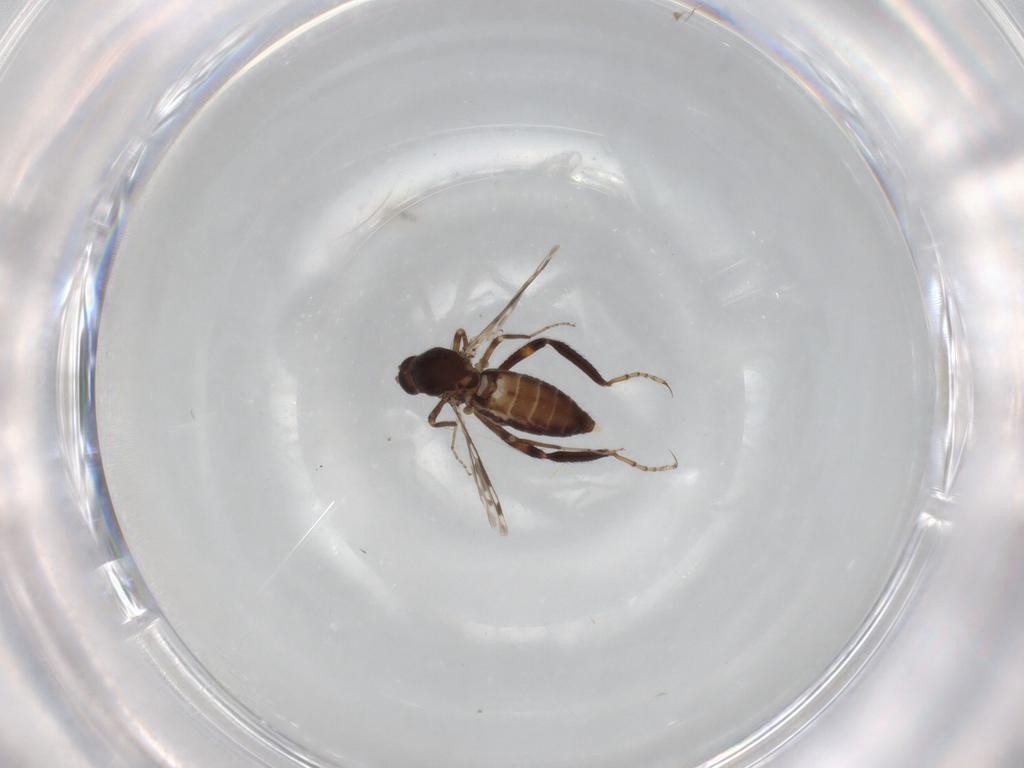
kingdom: Animalia
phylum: Arthropoda
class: Insecta
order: Diptera
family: Ceratopogonidae
